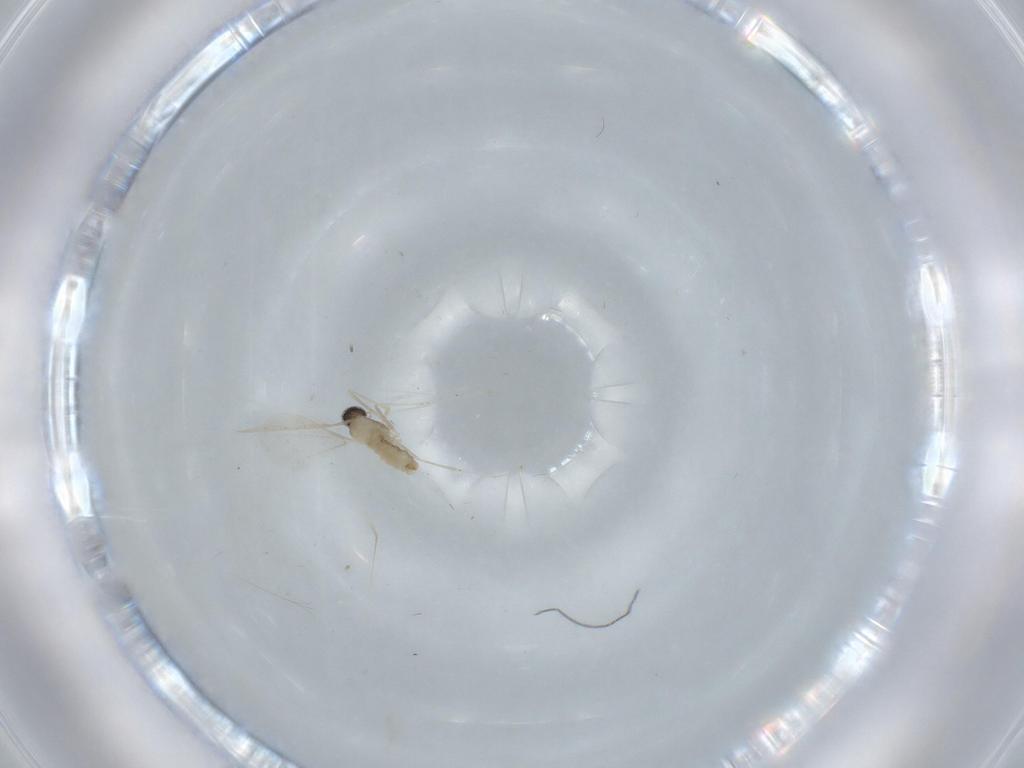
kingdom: Animalia
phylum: Arthropoda
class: Insecta
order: Diptera
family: Cecidomyiidae
